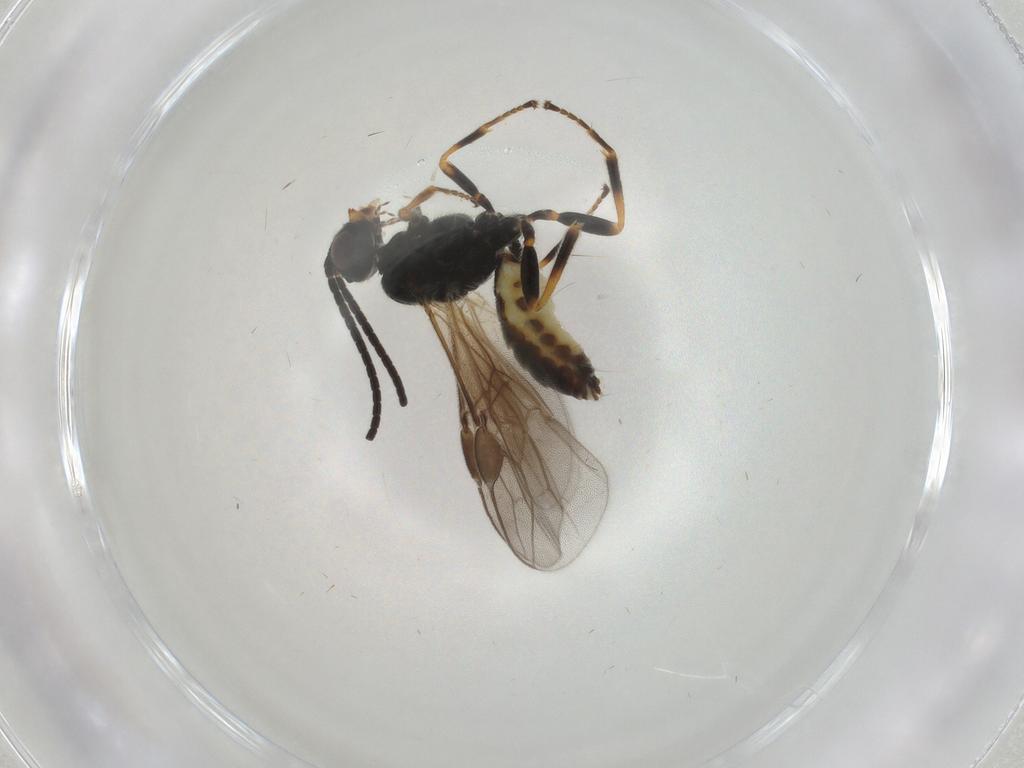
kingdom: Animalia
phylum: Arthropoda
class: Insecta
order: Hymenoptera
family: Braconidae
